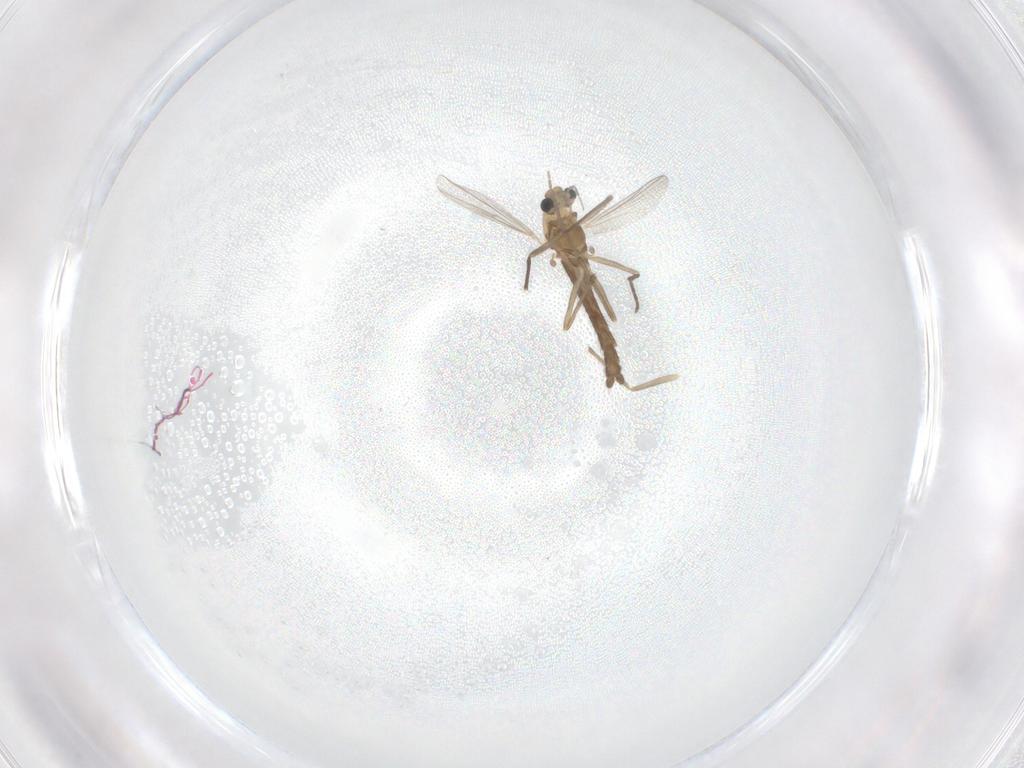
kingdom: Animalia
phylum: Arthropoda
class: Insecta
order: Diptera
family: Chironomidae
